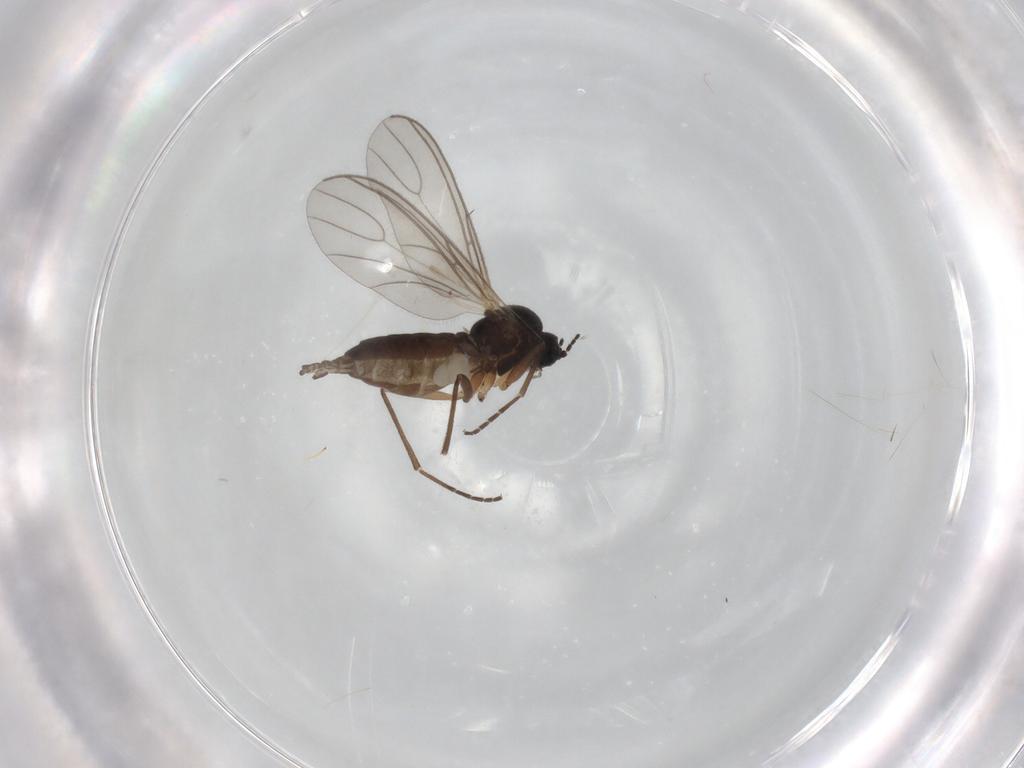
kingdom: Animalia
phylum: Arthropoda
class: Insecta
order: Diptera
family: Sciaridae
